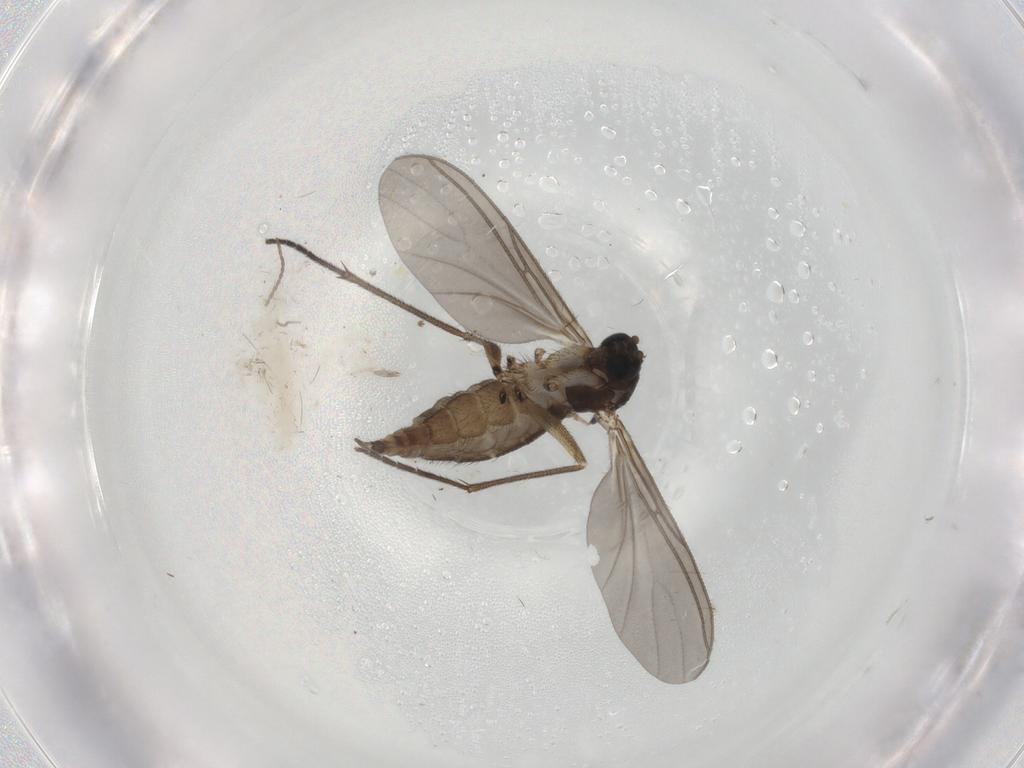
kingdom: Animalia
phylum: Arthropoda
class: Insecta
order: Diptera
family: Sciaridae
